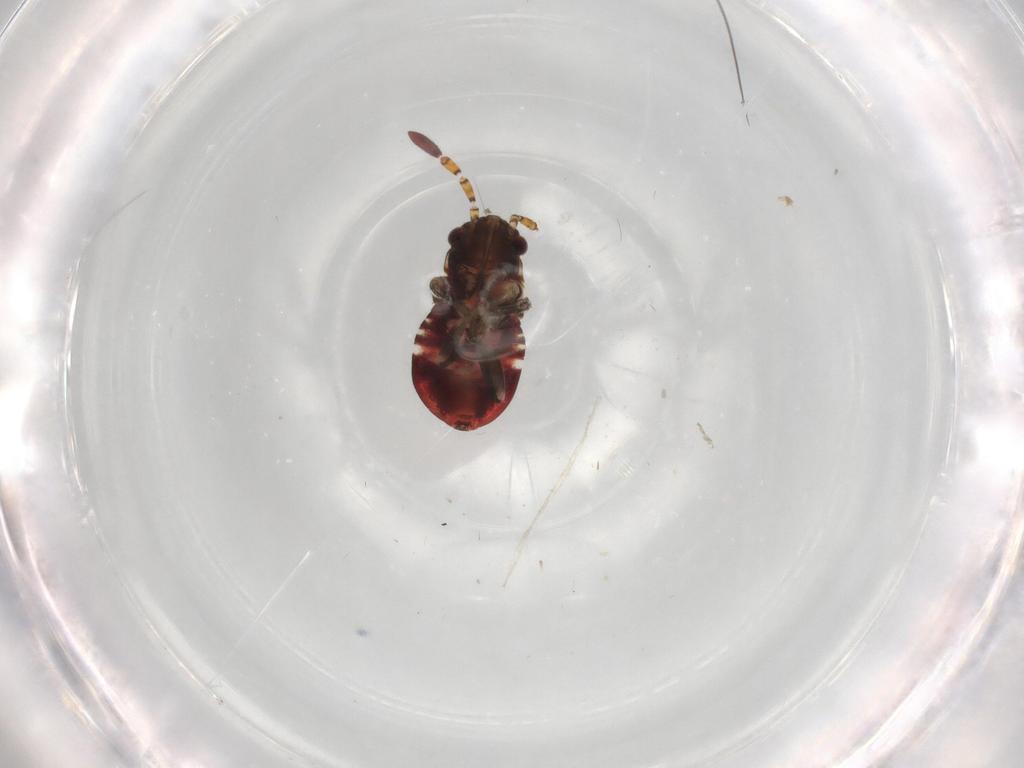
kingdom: Animalia
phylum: Arthropoda
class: Insecta
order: Hemiptera
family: Rhyparochromidae
